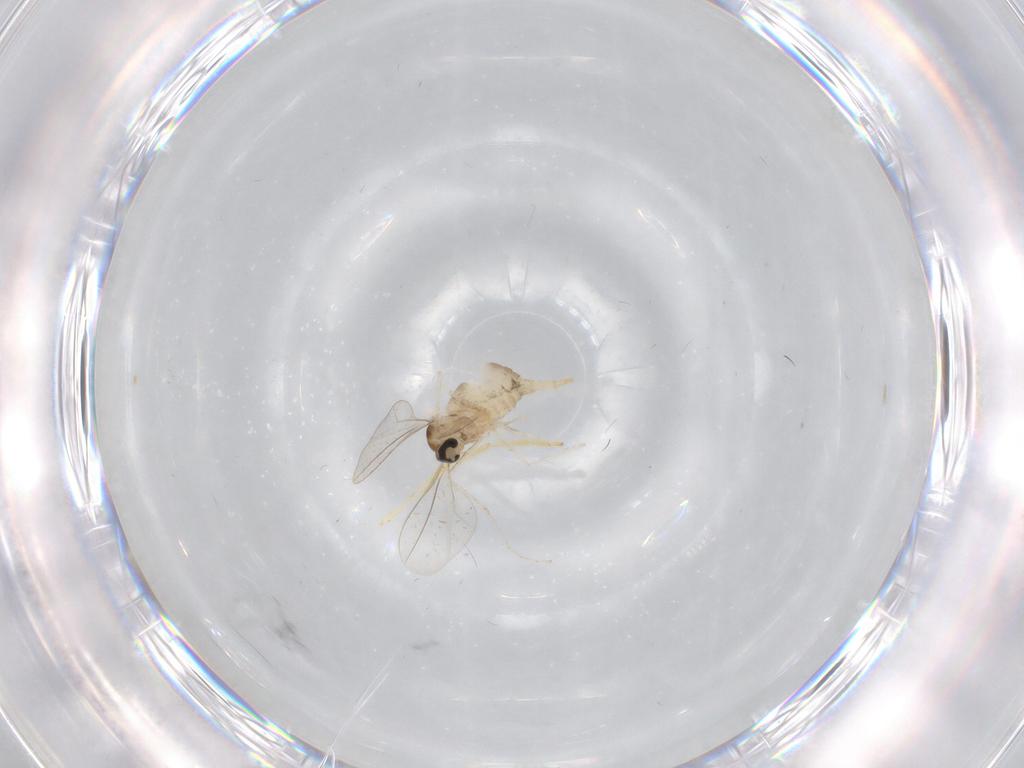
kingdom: Animalia
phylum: Arthropoda
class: Insecta
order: Diptera
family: Cecidomyiidae
